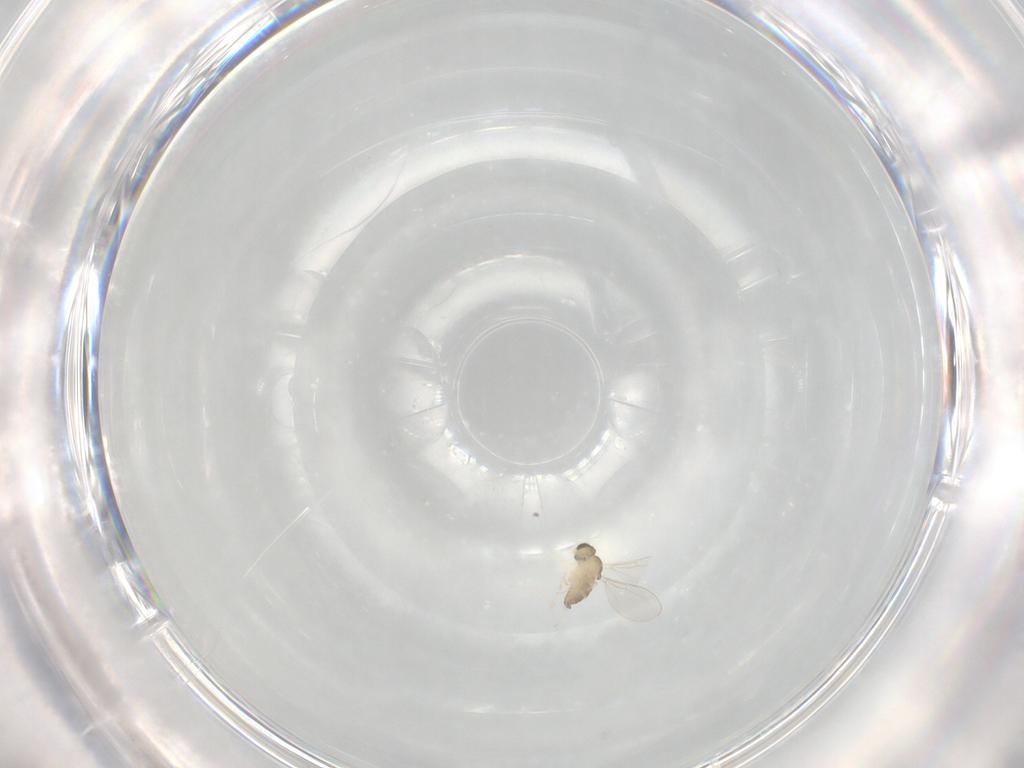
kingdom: Animalia
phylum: Arthropoda
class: Insecta
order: Diptera
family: Cecidomyiidae
